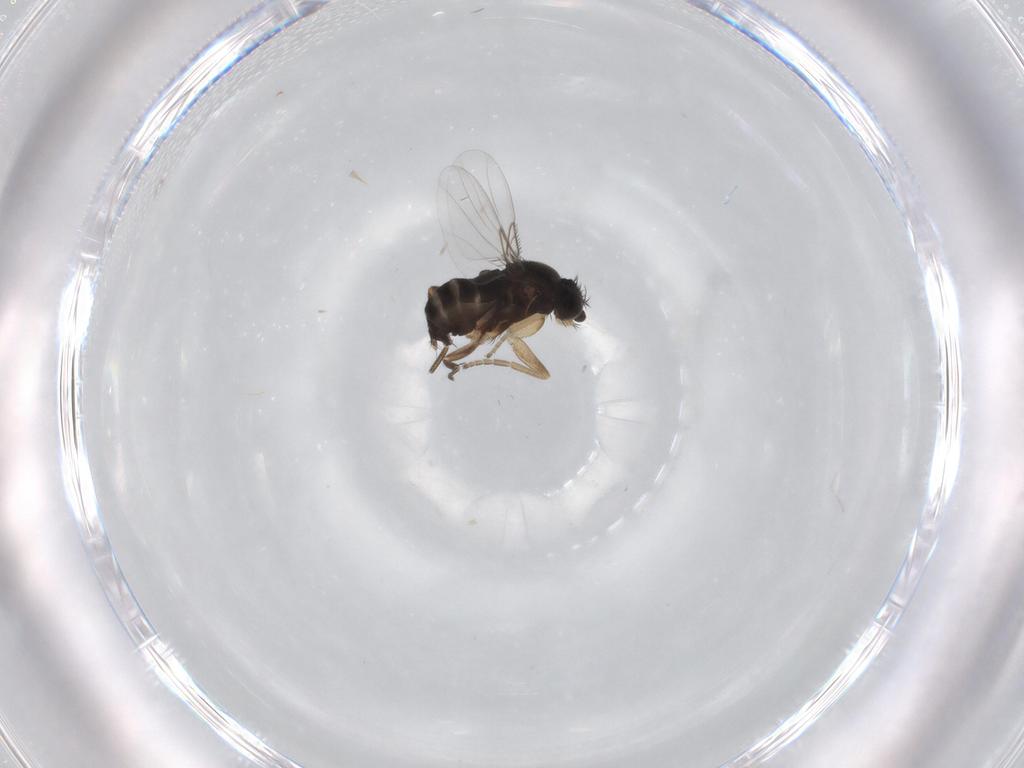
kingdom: Animalia
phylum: Arthropoda
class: Insecta
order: Diptera
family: Phoridae
